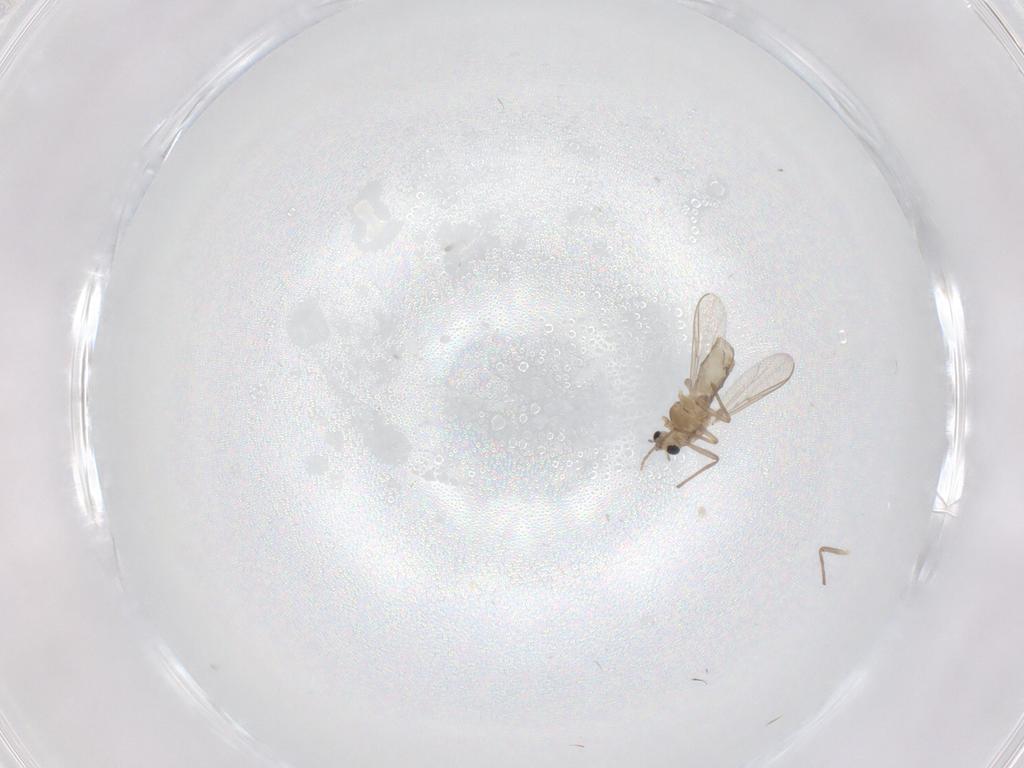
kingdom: Animalia
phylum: Arthropoda
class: Insecta
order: Diptera
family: Chironomidae
